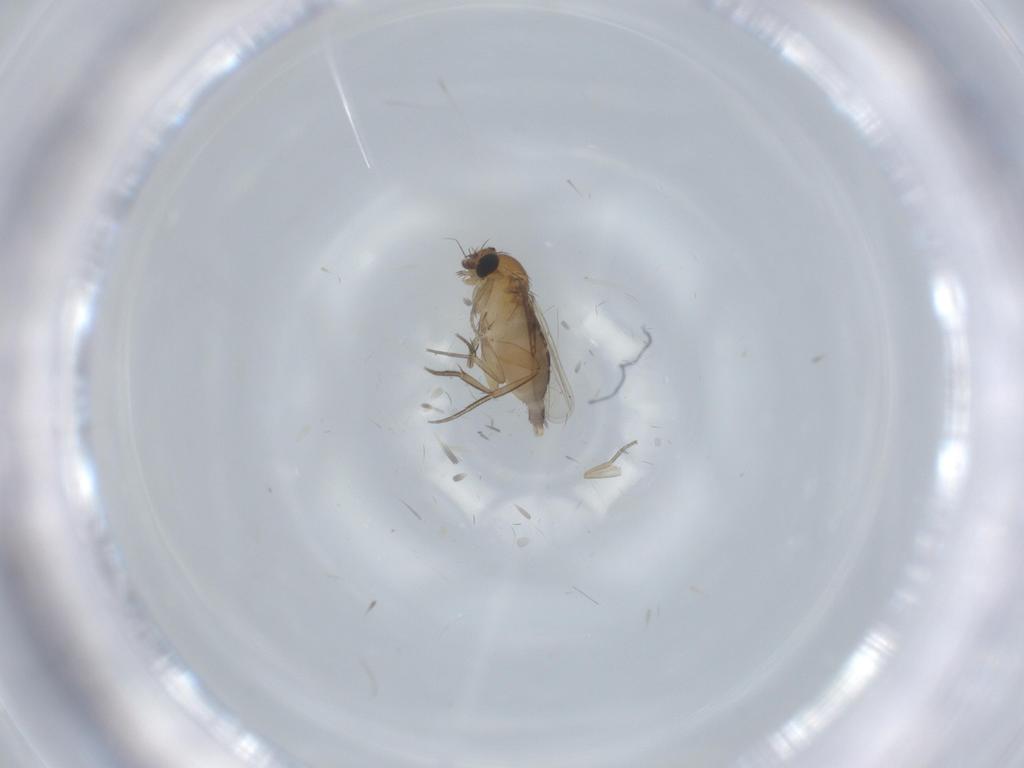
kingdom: Animalia
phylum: Arthropoda
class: Insecta
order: Diptera
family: Phoridae
